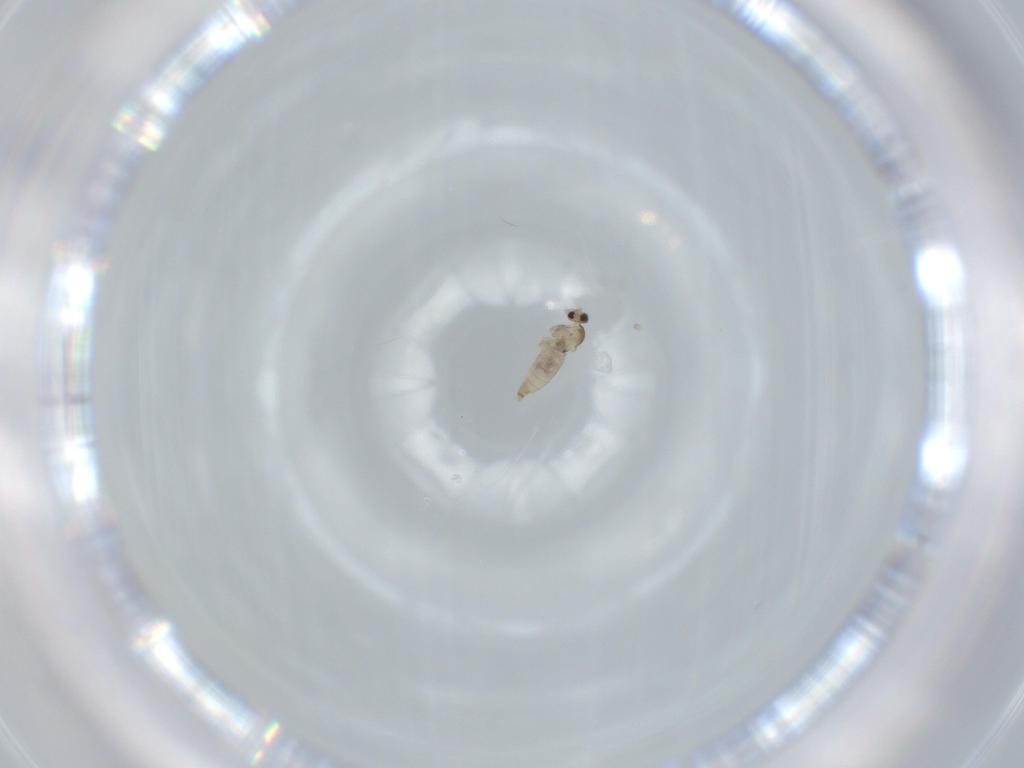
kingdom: Animalia
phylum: Arthropoda
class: Insecta
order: Diptera
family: Cecidomyiidae
